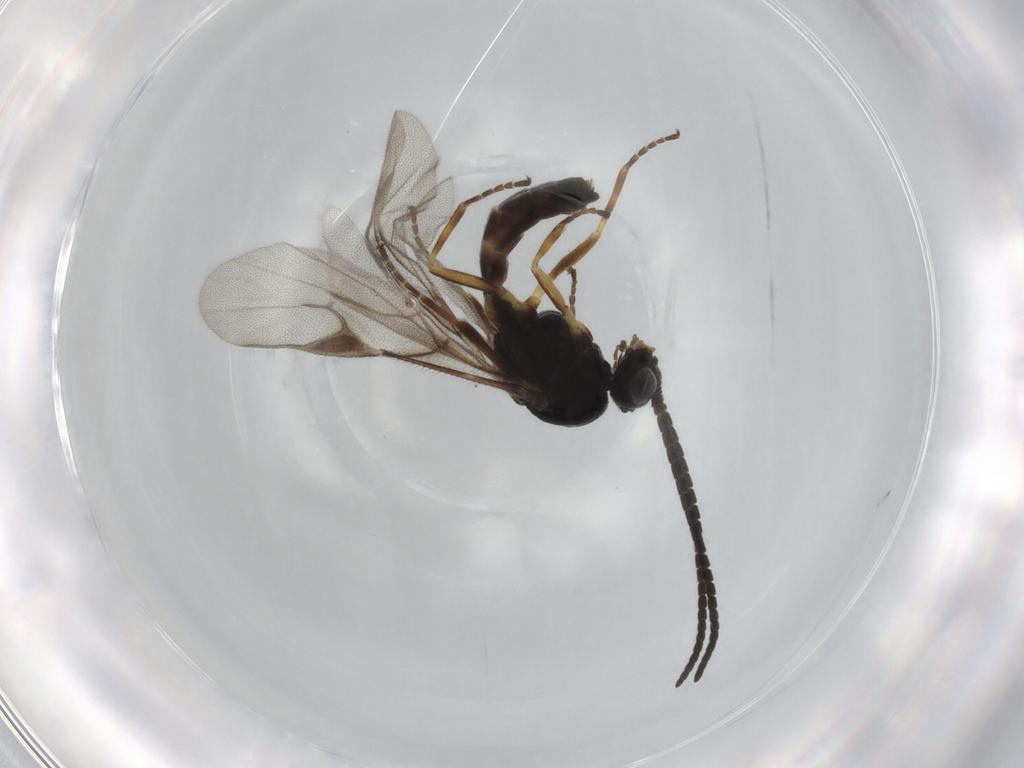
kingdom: Animalia
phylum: Arthropoda
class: Insecta
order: Hymenoptera
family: Braconidae
